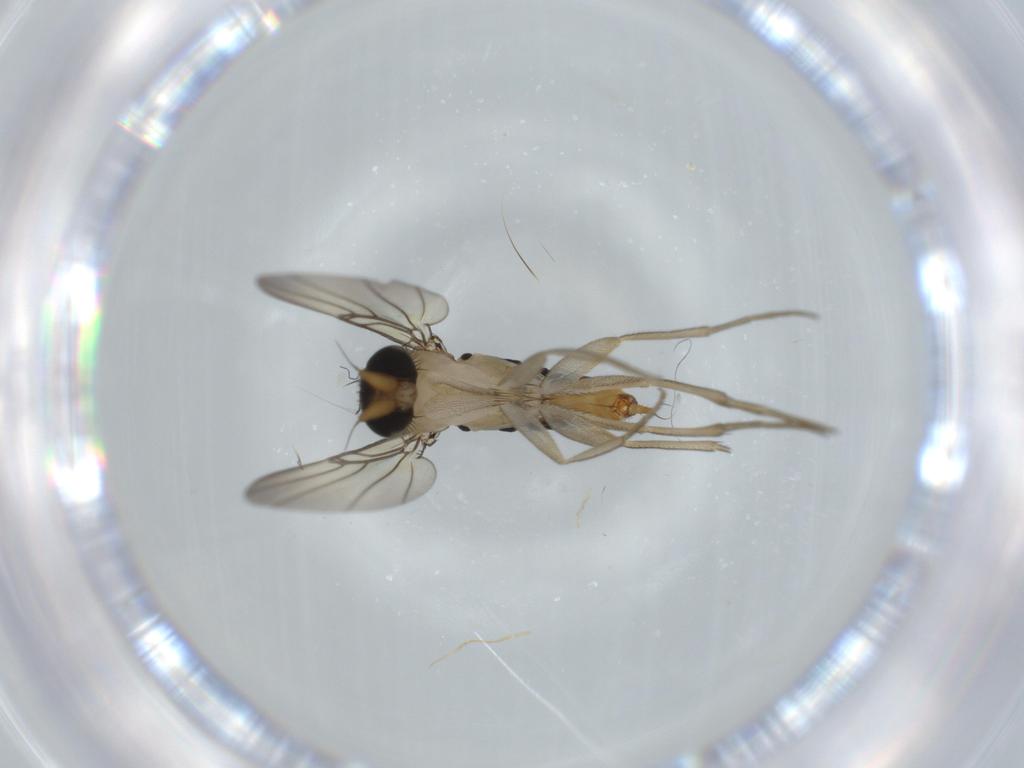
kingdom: Animalia
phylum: Arthropoda
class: Insecta
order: Diptera
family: Phoridae
